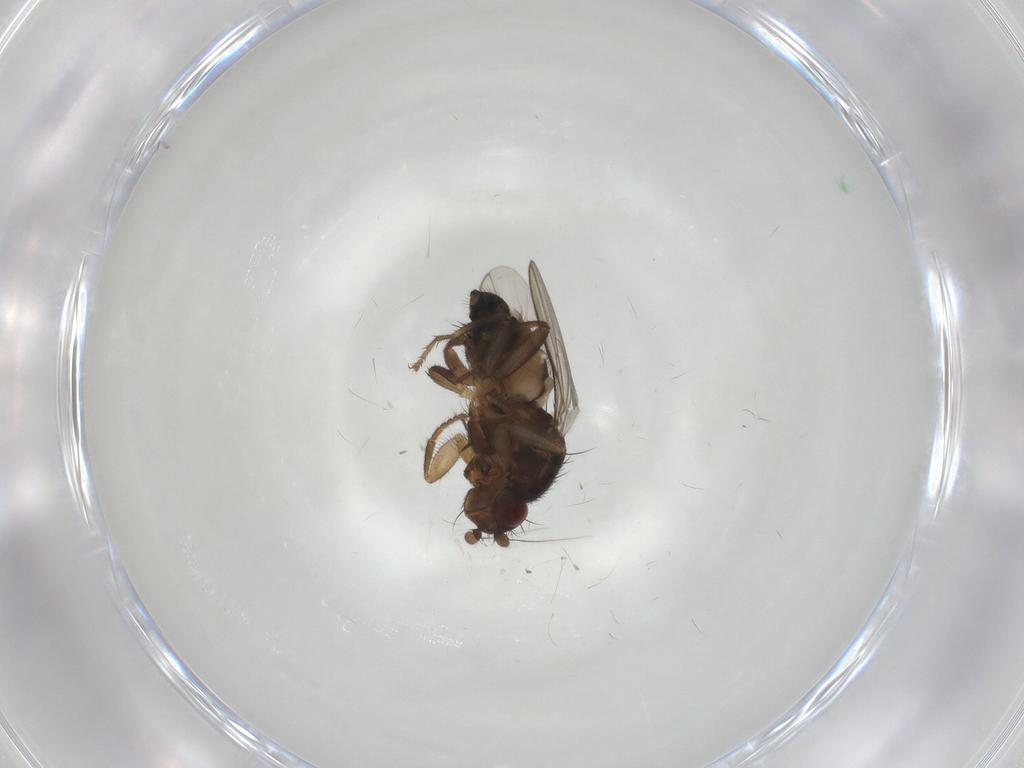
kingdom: Animalia
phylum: Arthropoda
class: Insecta
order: Diptera
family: Sphaeroceridae
